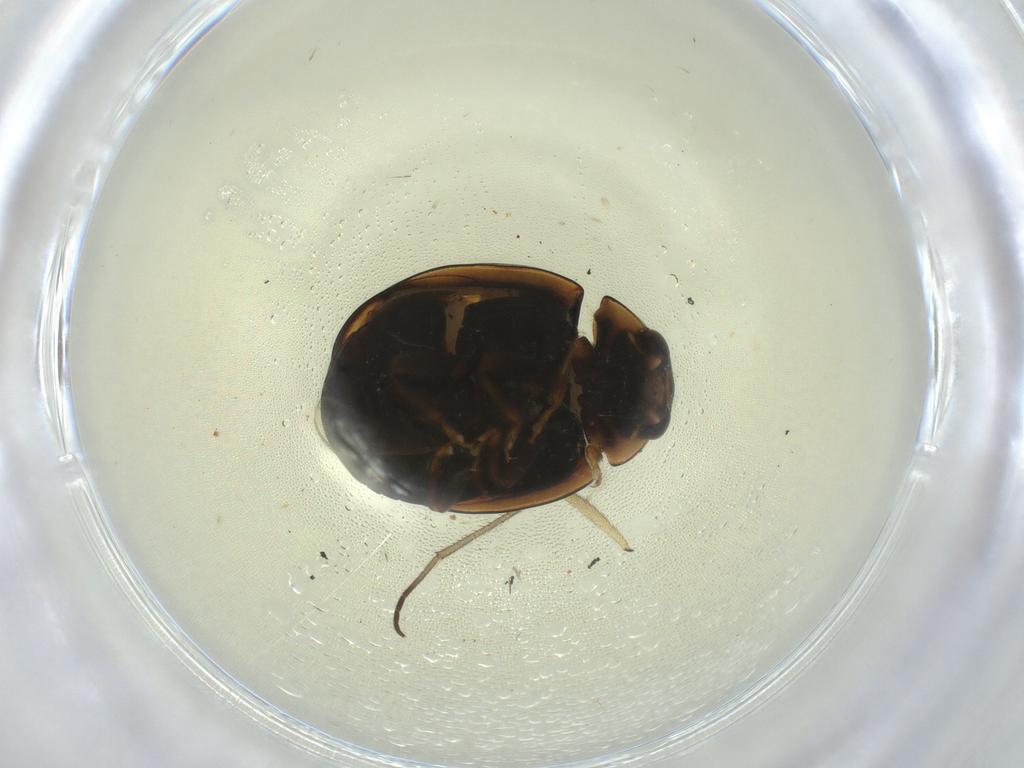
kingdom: Animalia
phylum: Arthropoda
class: Insecta
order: Coleoptera
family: Coccinellidae
